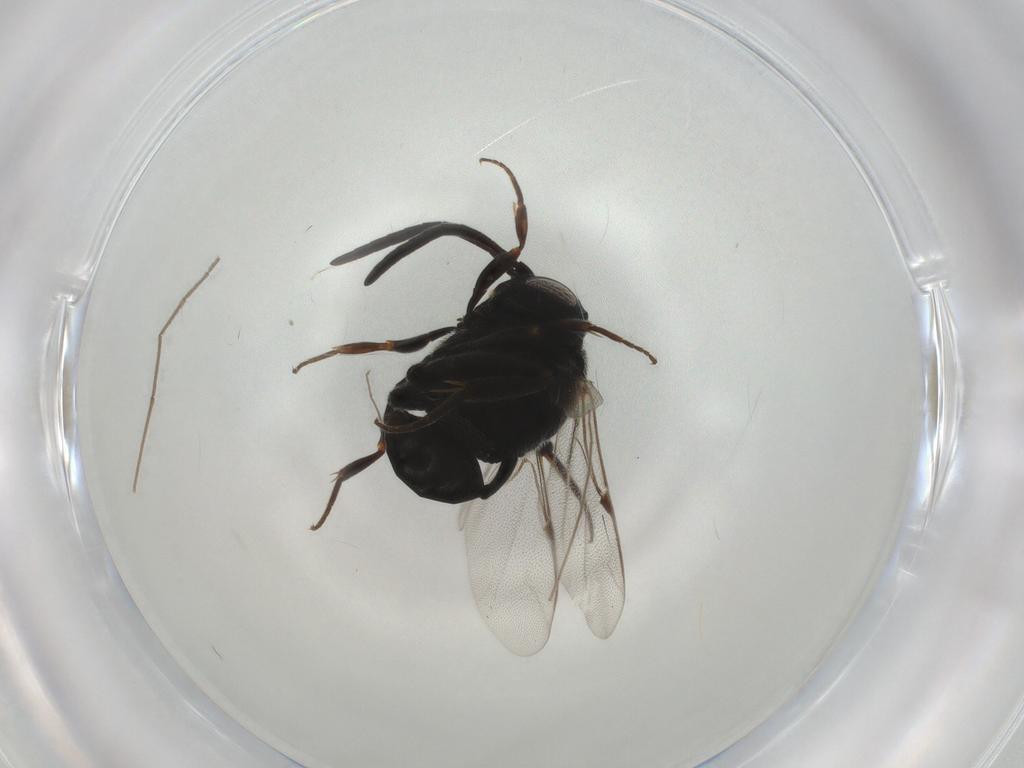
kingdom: Animalia
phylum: Arthropoda
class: Insecta
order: Hymenoptera
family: Evaniidae
